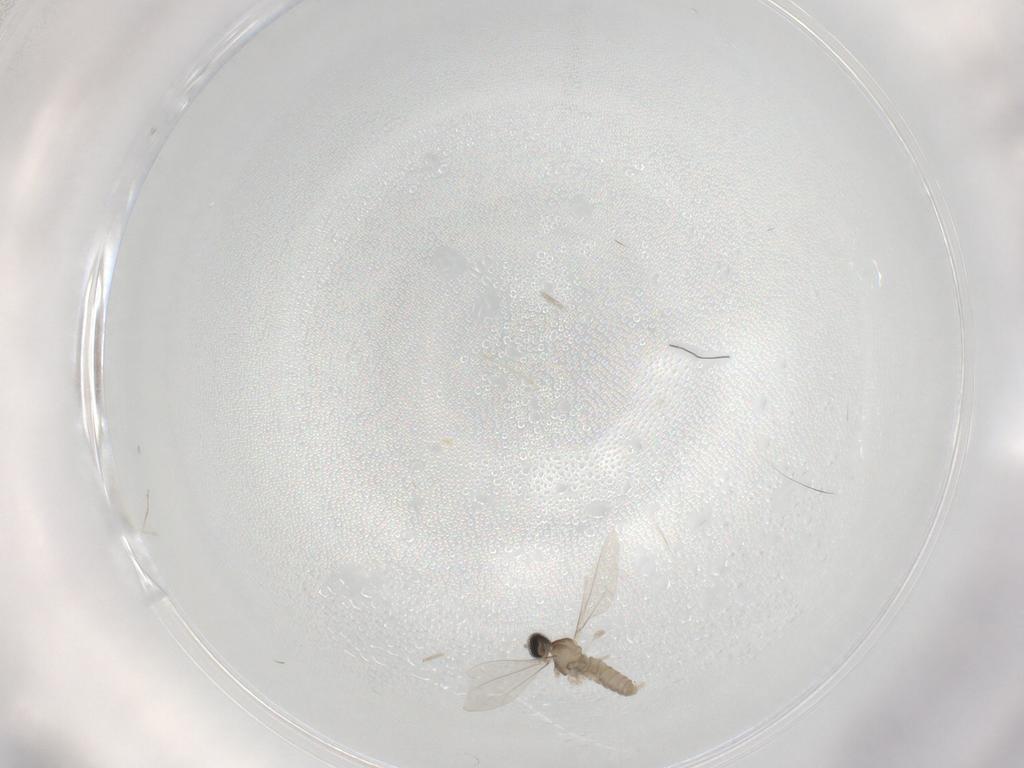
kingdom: Animalia
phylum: Arthropoda
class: Insecta
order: Diptera
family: Cecidomyiidae
